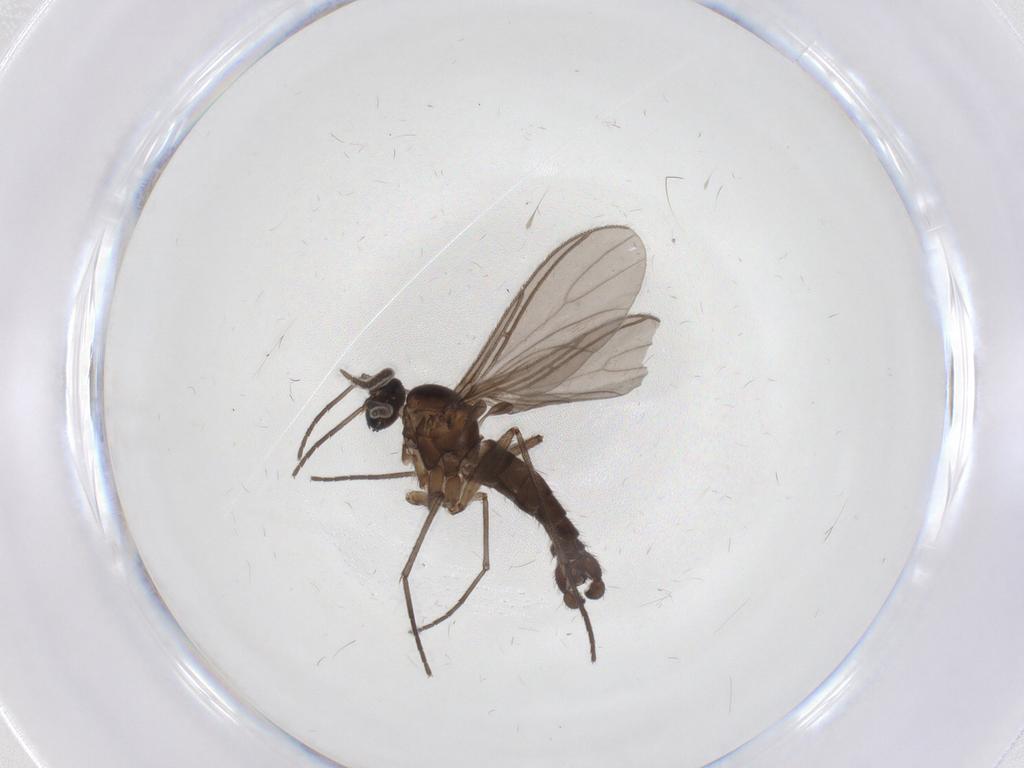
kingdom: Animalia
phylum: Arthropoda
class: Insecta
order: Diptera
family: Sciaridae
